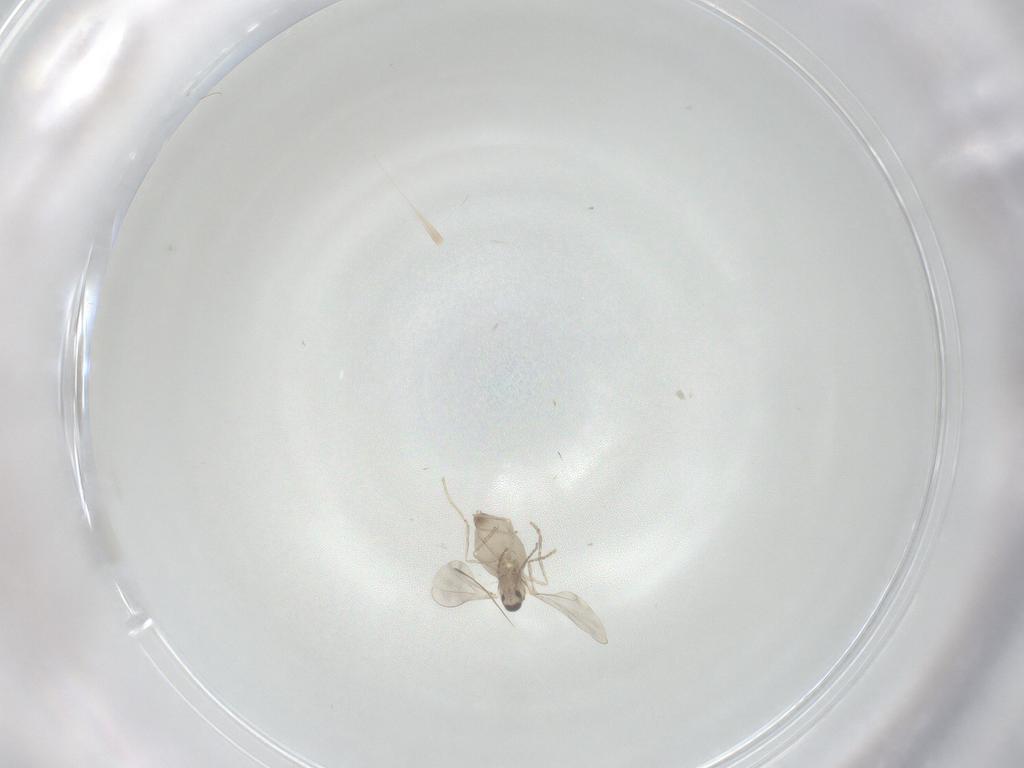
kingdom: Animalia
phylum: Arthropoda
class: Insecta
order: Diptera
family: Cecidomyiidae
